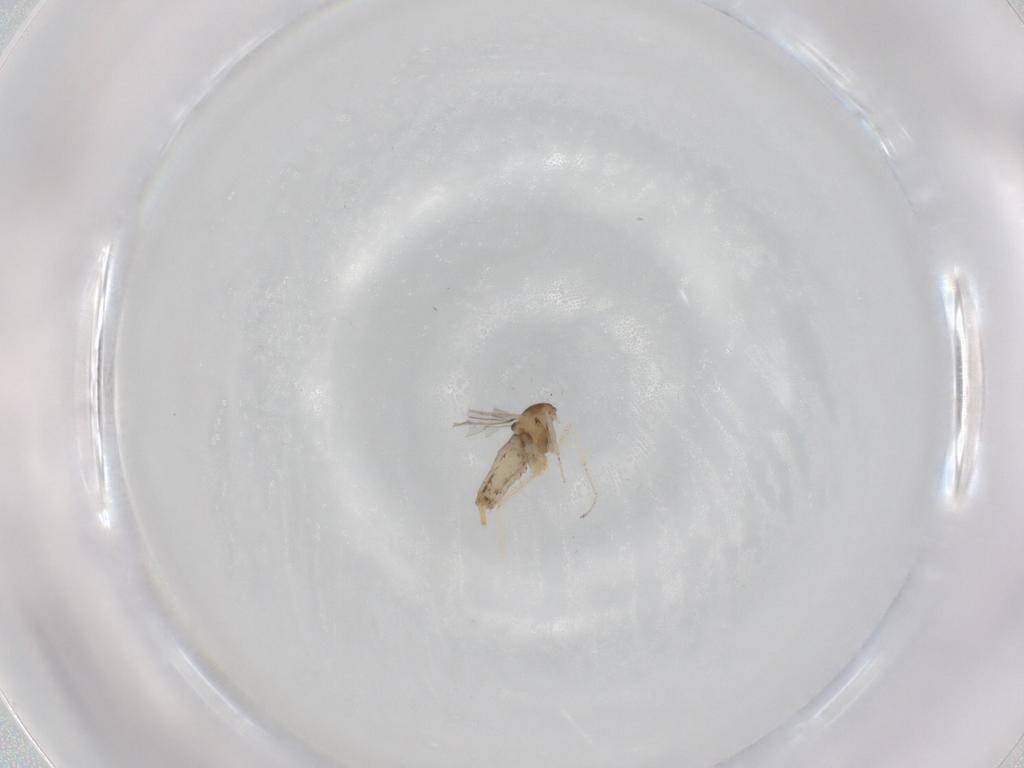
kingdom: Animalia
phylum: Arthropoda
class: Insecta
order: Diptera
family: Cecidomyiidae
